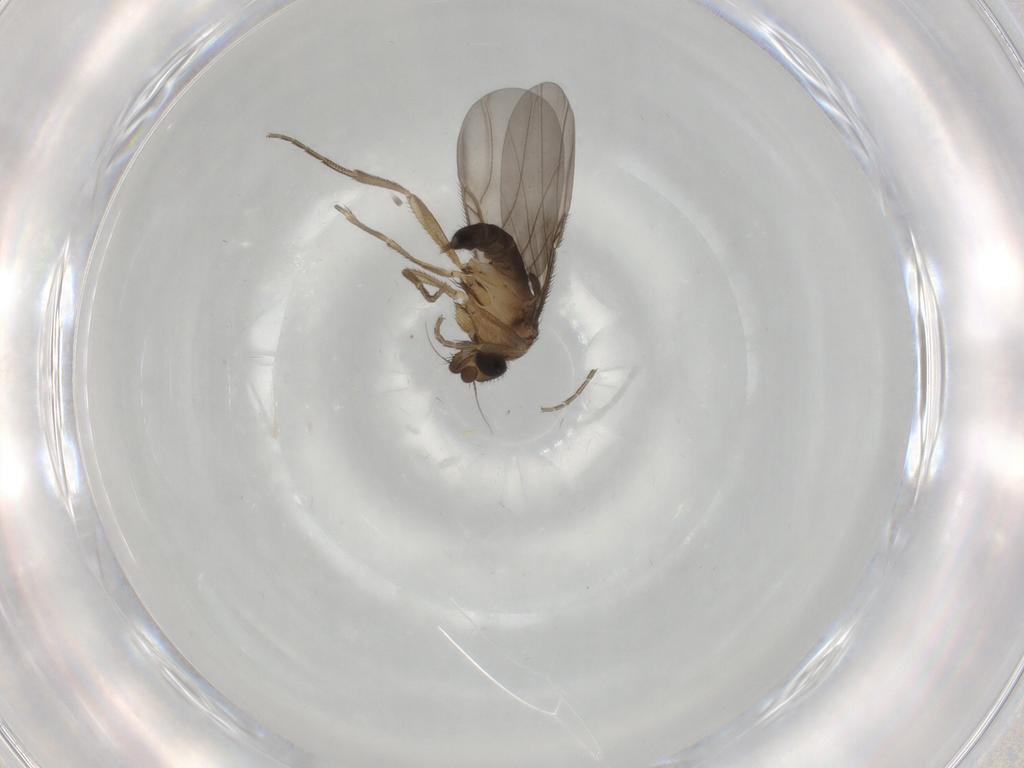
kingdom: Animalia
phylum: Arthropoda
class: Insecta
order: Diptera
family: Phoridae
